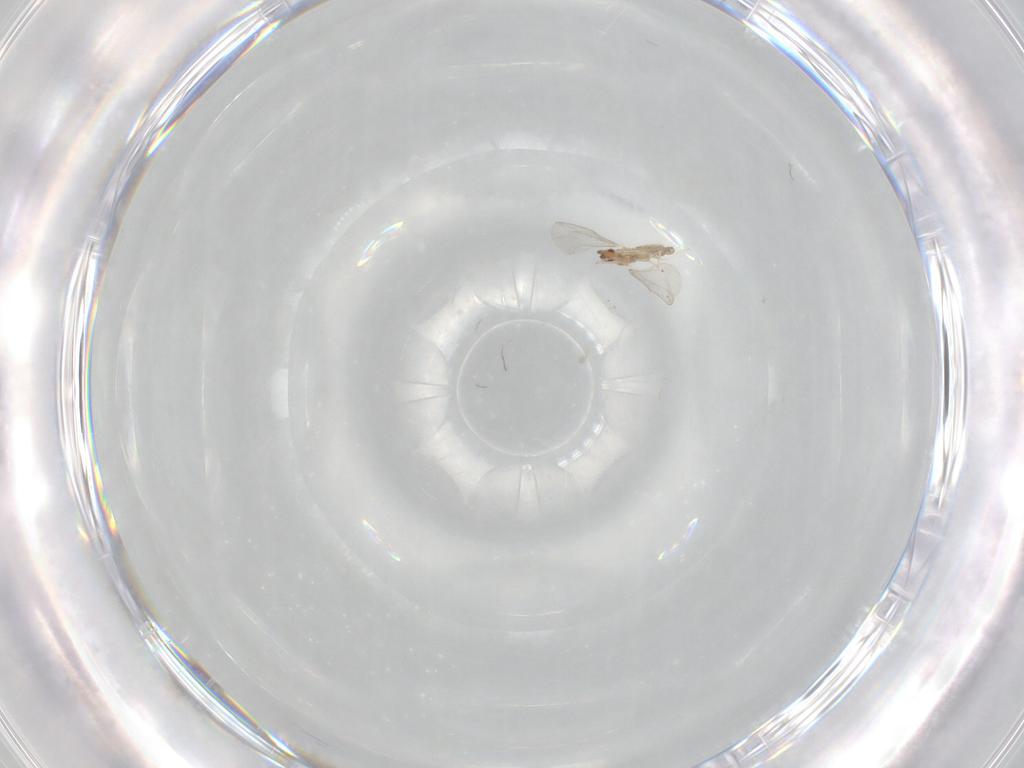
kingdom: Animalia
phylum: Arthropoda
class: Insecta
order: Diptera
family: Cecidomyiidae
